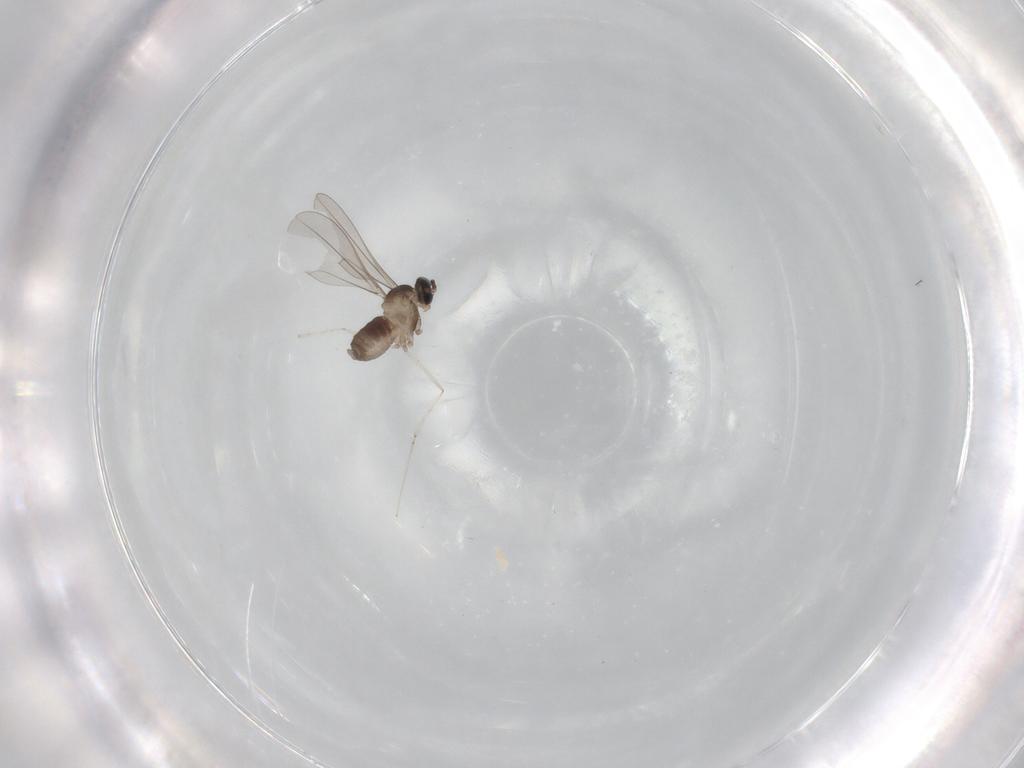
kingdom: Animalia
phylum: Arthropoda
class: Insecta
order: Diptera
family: Cecidomyiidae
